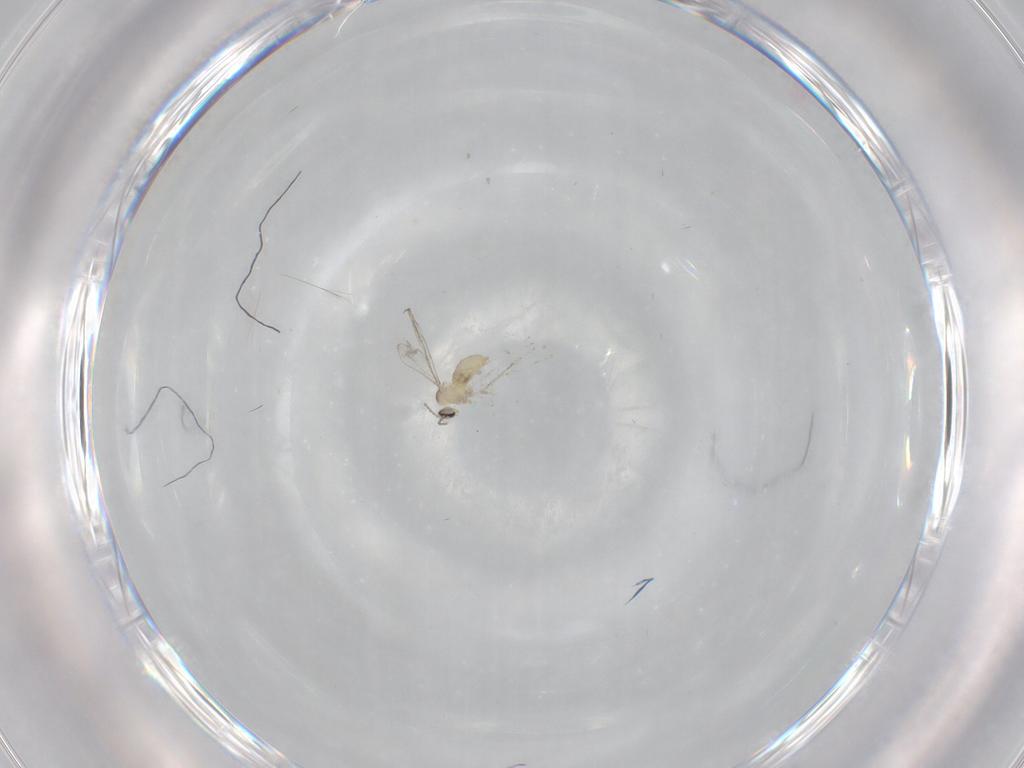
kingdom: Animalia
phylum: Arthropoda
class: Insecta
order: Diptera
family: Cecidomyiidae
